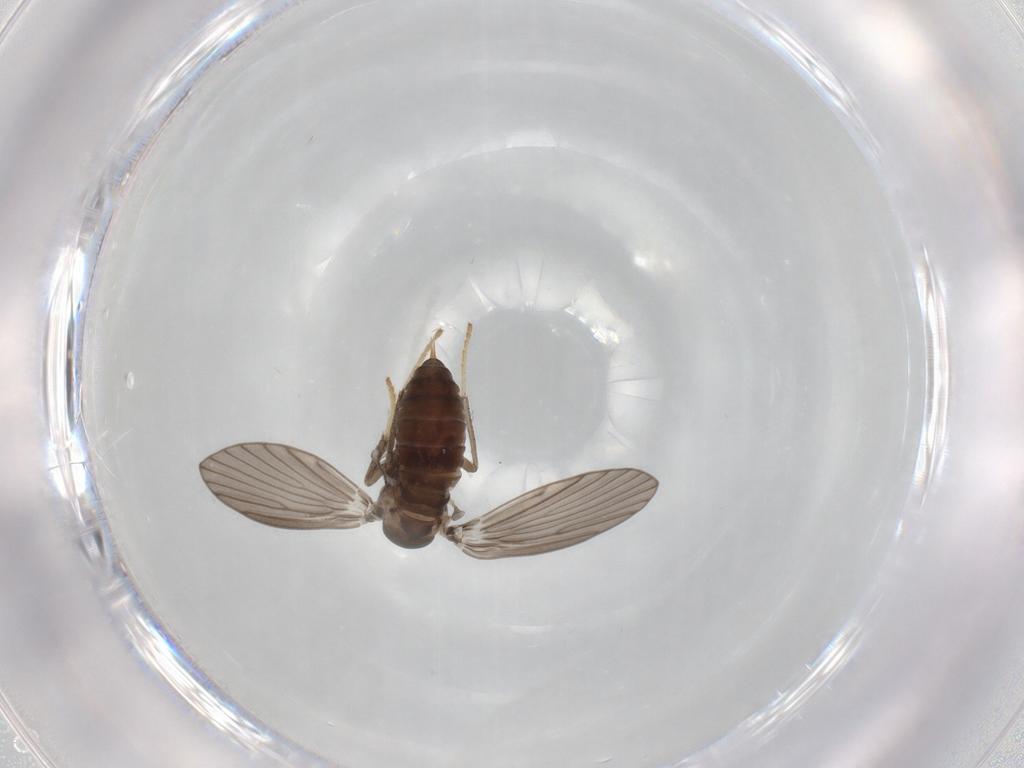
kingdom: Animalia
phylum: Arthropoda
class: Insecta
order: Diptera
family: Psychodidae
